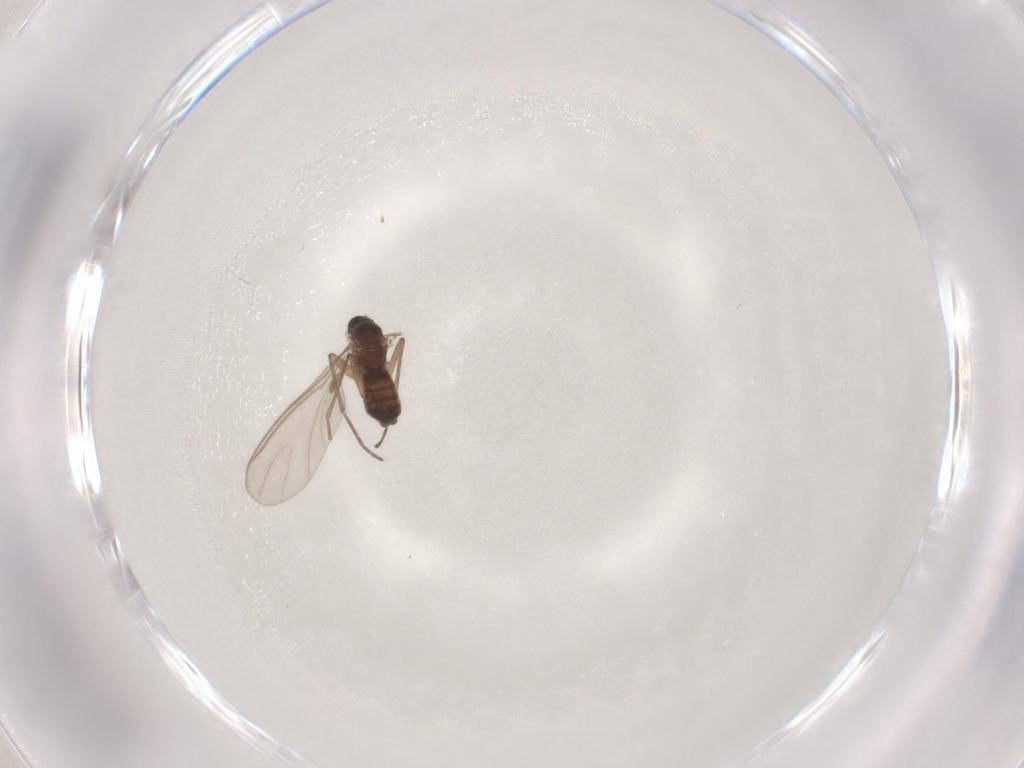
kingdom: Animalia
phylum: Arthropoda
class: Insecta
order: Diptera
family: Sciaridae
